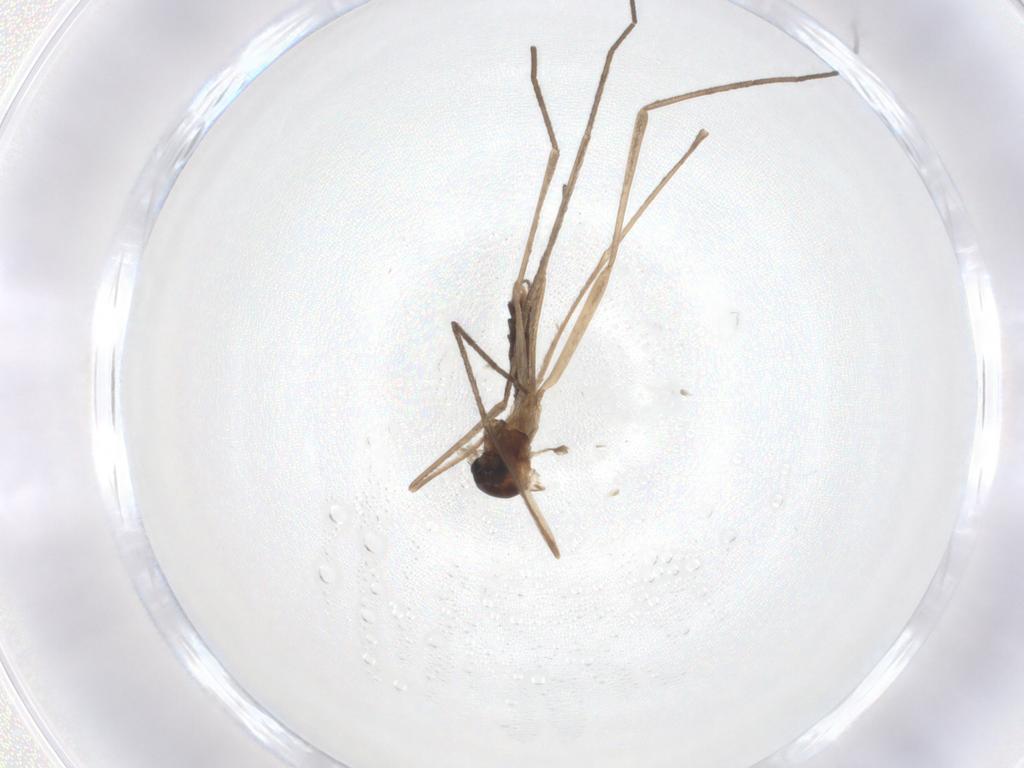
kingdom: Animalia
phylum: Arthropoda
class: Insecta
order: Diptera
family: Cecidomyiidae
